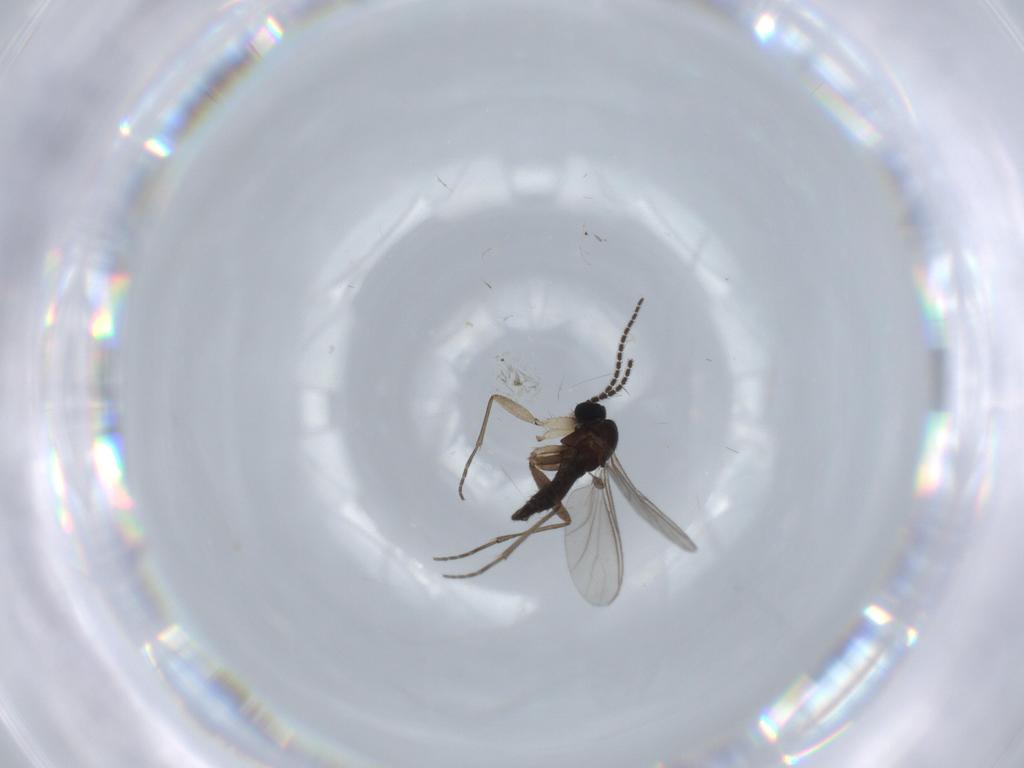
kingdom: Animalia
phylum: Arthropoda
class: Insecta
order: Diptera
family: Sciaridae
